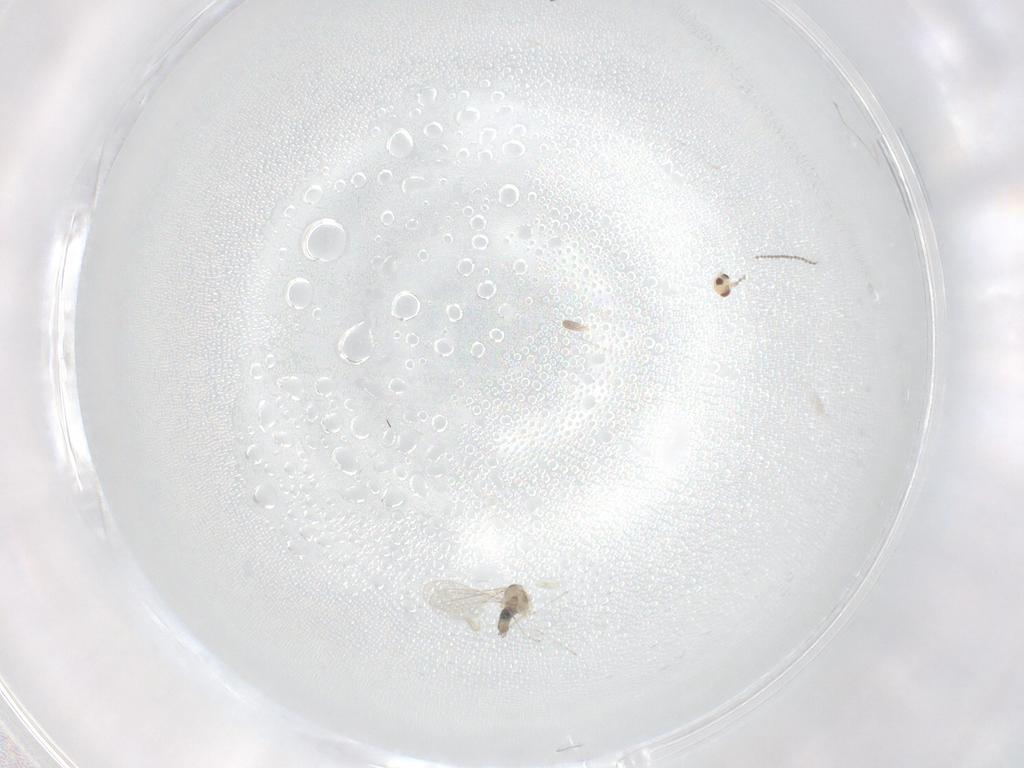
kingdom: Animalia
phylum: Arthropoda
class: Insecta
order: Diptera
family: Cecidomyiidae
